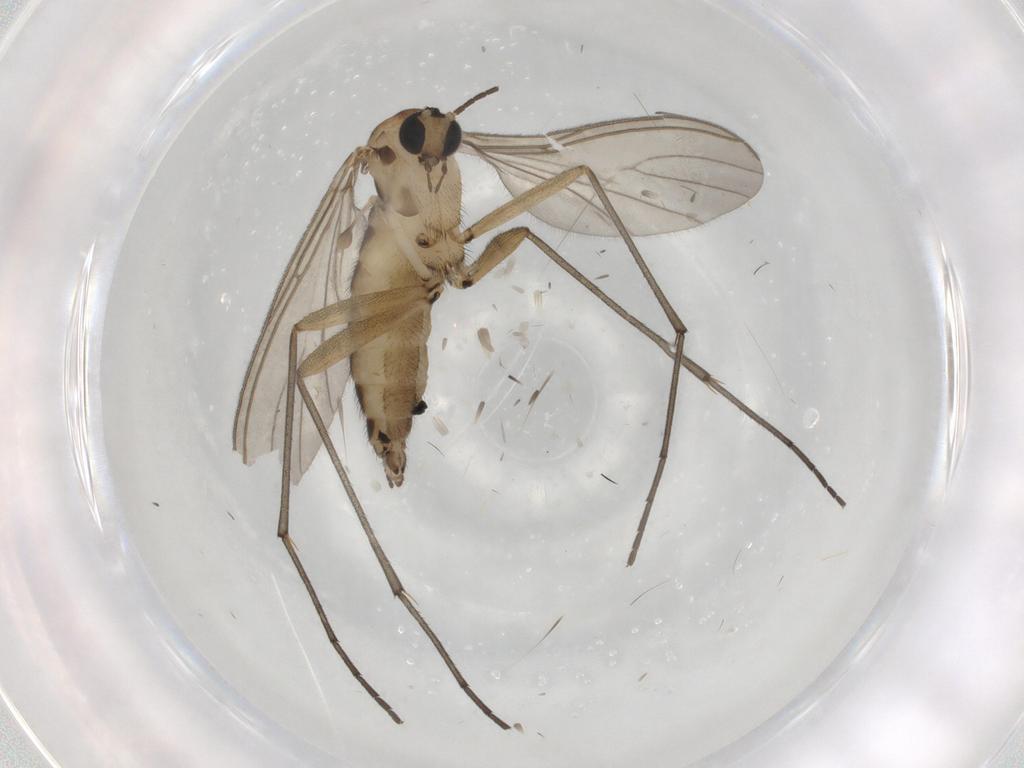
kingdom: Animalia
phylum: Arthropoda
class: Insecta
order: Diptera
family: Sciaridae
